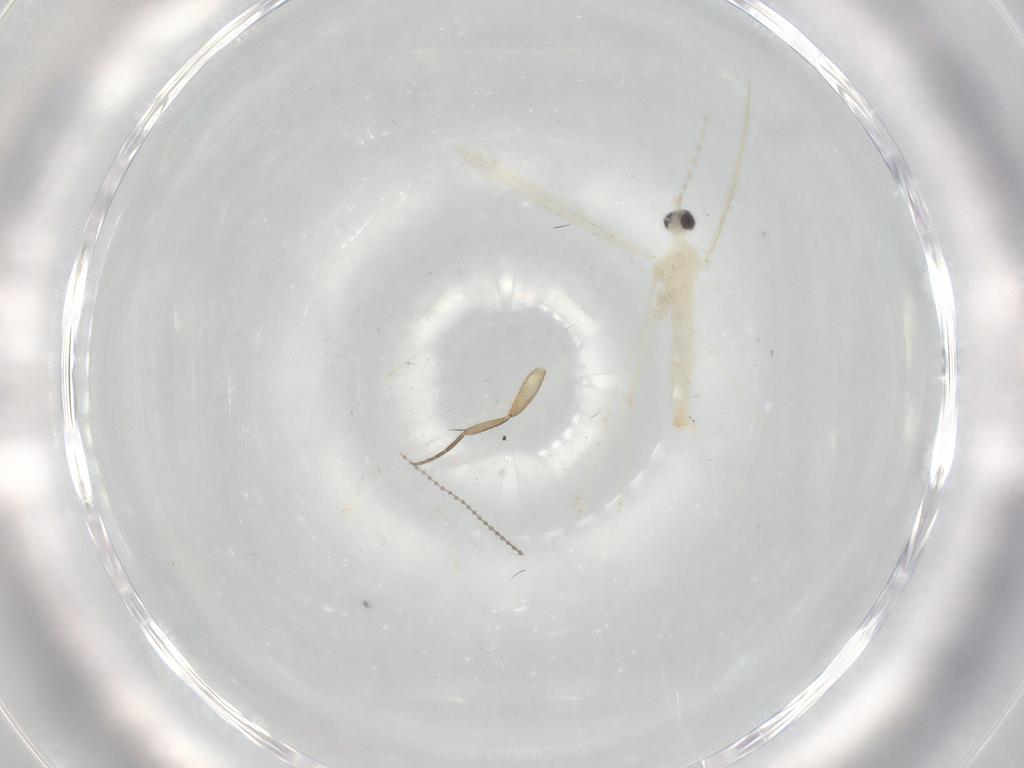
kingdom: Animalia
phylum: Arthropoda
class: Insecta
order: Diptera
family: Cecidomyiidae
